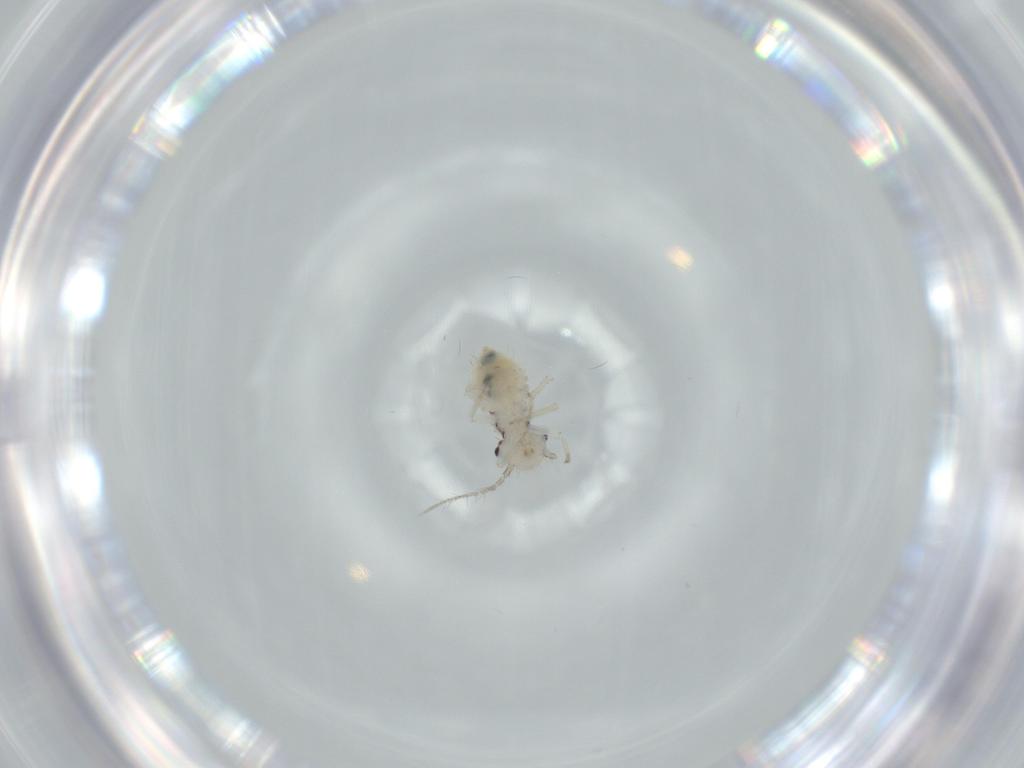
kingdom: Animalia
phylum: Arthropoda
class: Insecta
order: Psocodea
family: Pseudocaeciliidae
